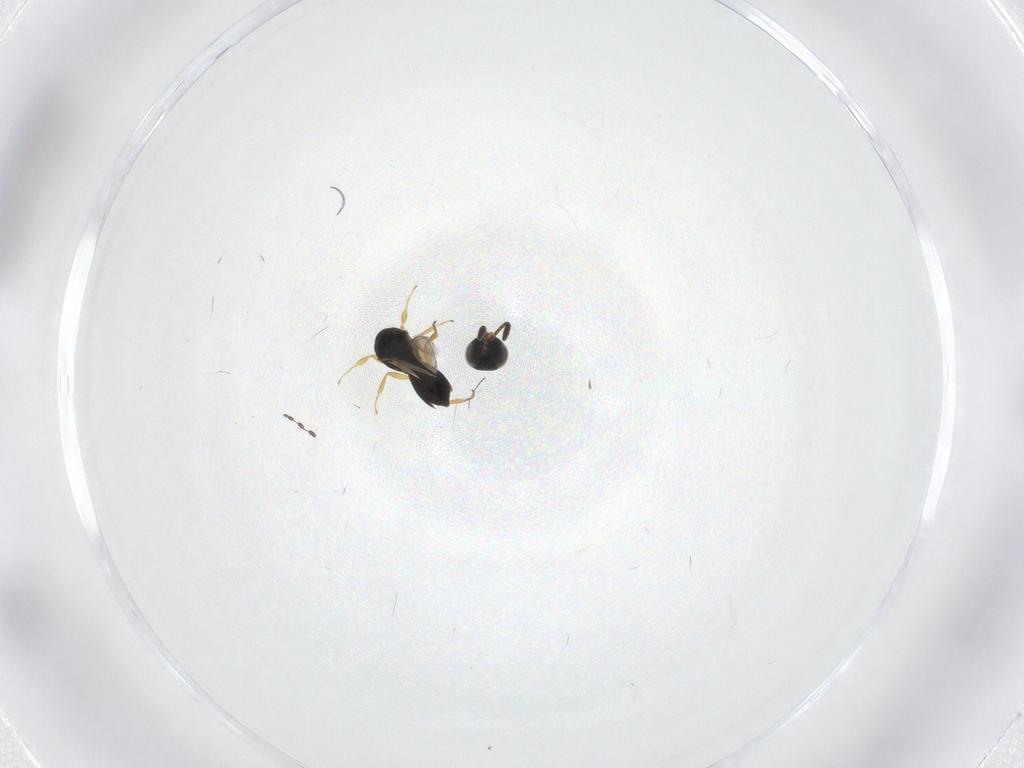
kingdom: Animalia
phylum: Arthropoda
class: Insecta
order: Hymenoptera
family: Scelionidae
